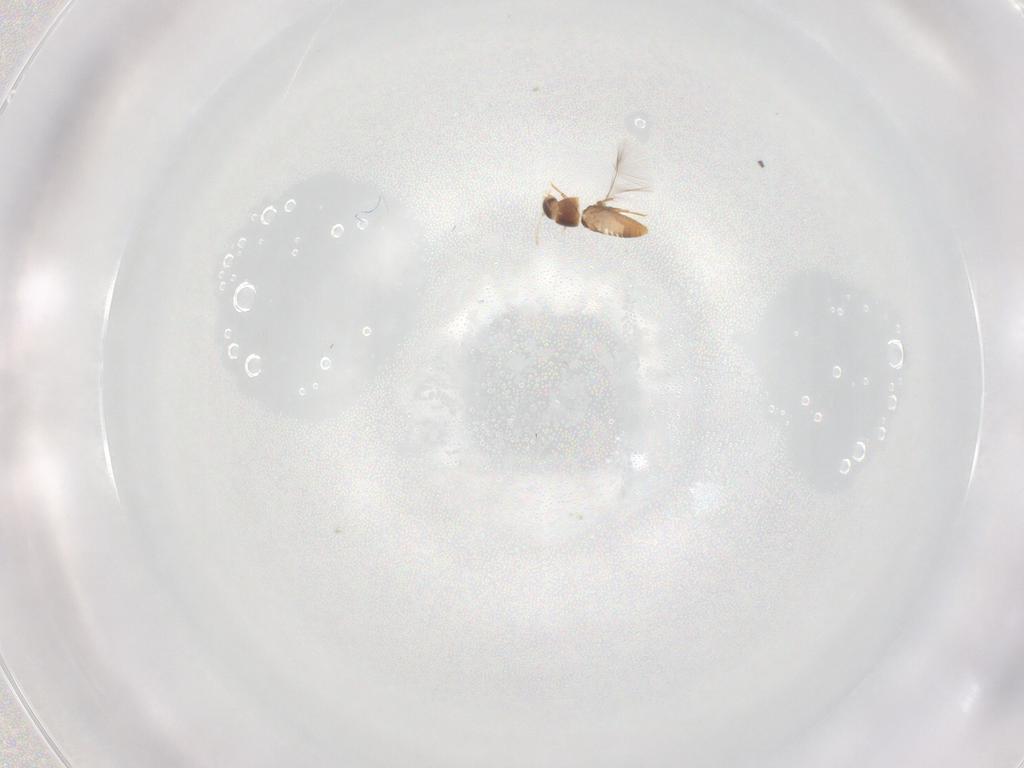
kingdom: Animalia
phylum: Arthropoda
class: Insecta
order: Coleoptera
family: Ptiliidae
